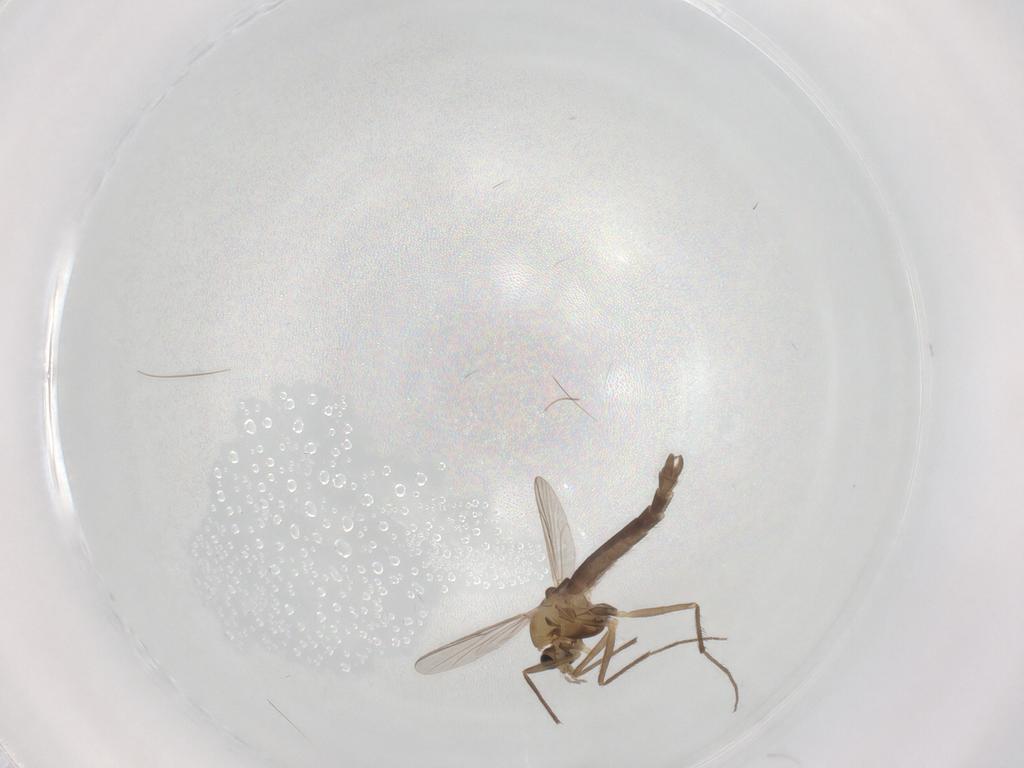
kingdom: Animalia
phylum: Arthropoda
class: Insecta
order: Diptera
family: Chironomidae
